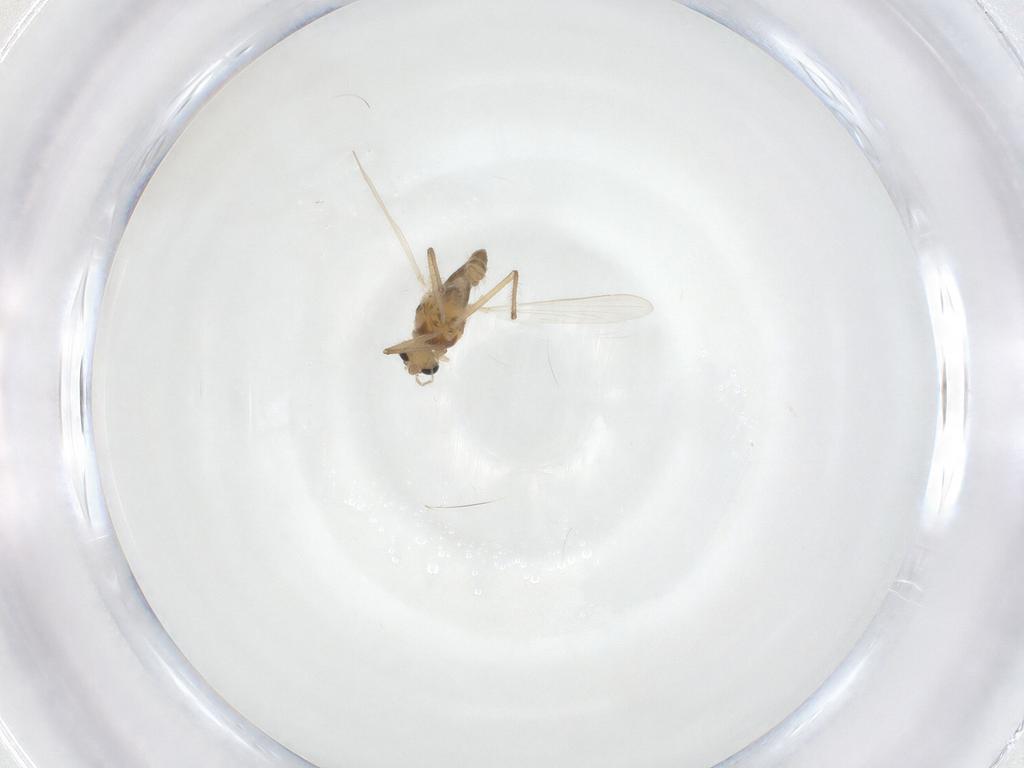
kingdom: Animalia
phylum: Arthropoda
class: Insecta
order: Diptera
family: Chironomidae
